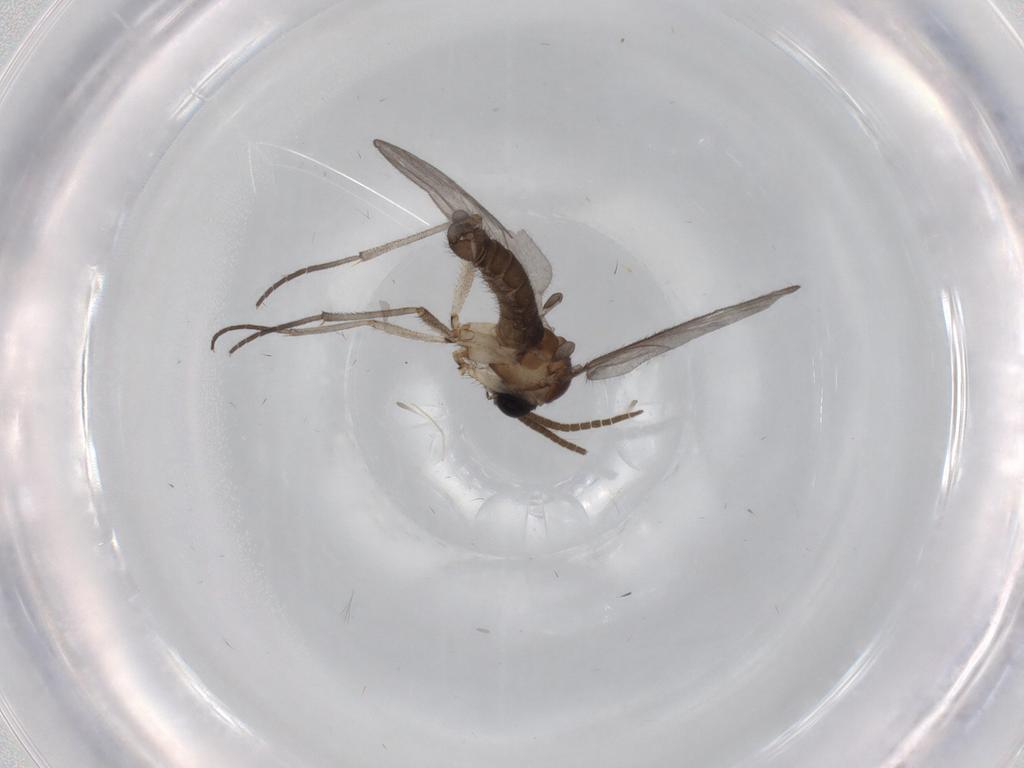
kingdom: Animalia
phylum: Arthropoda
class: Insecta
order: Diptera
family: Sciaridae
